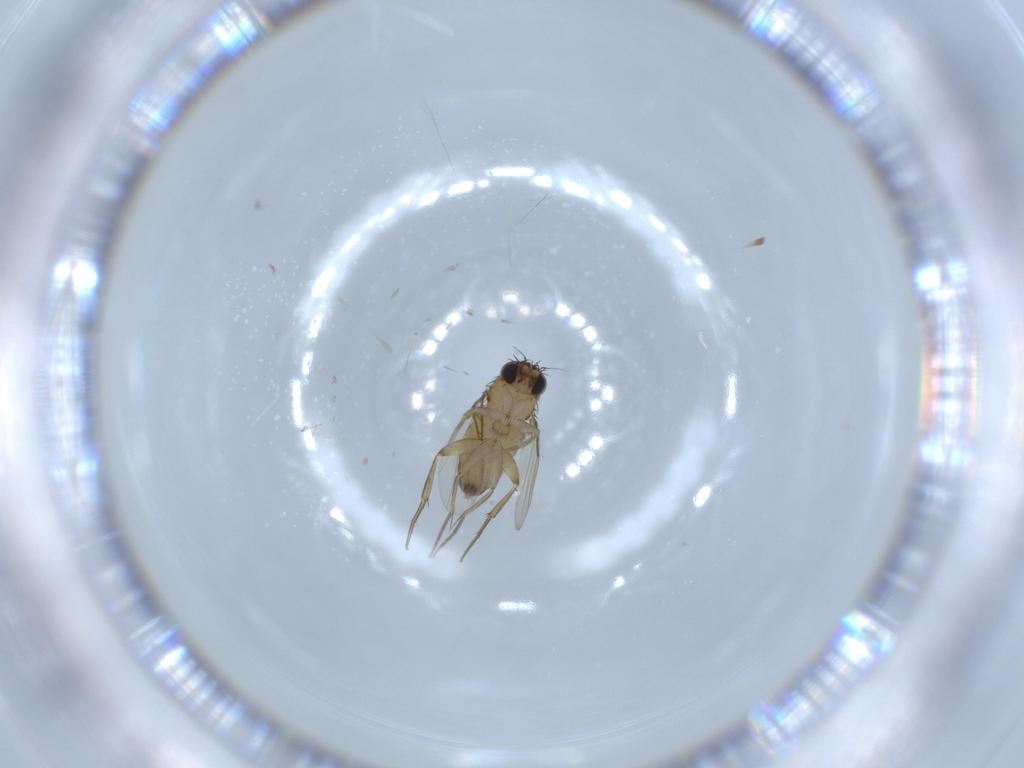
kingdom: Animalia
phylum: Arthropoda
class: Insecta
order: Diptera
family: Phoridae
